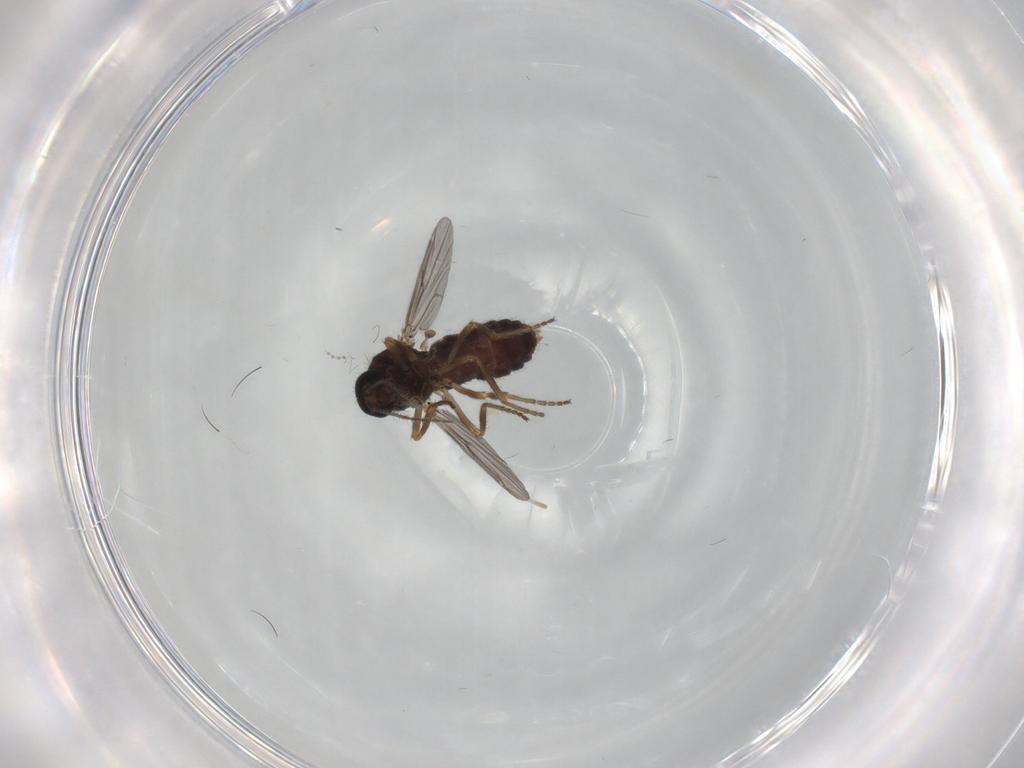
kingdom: Animalia
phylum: Arthropoda
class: Insecta
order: Diptera
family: Ceratopogonidae
